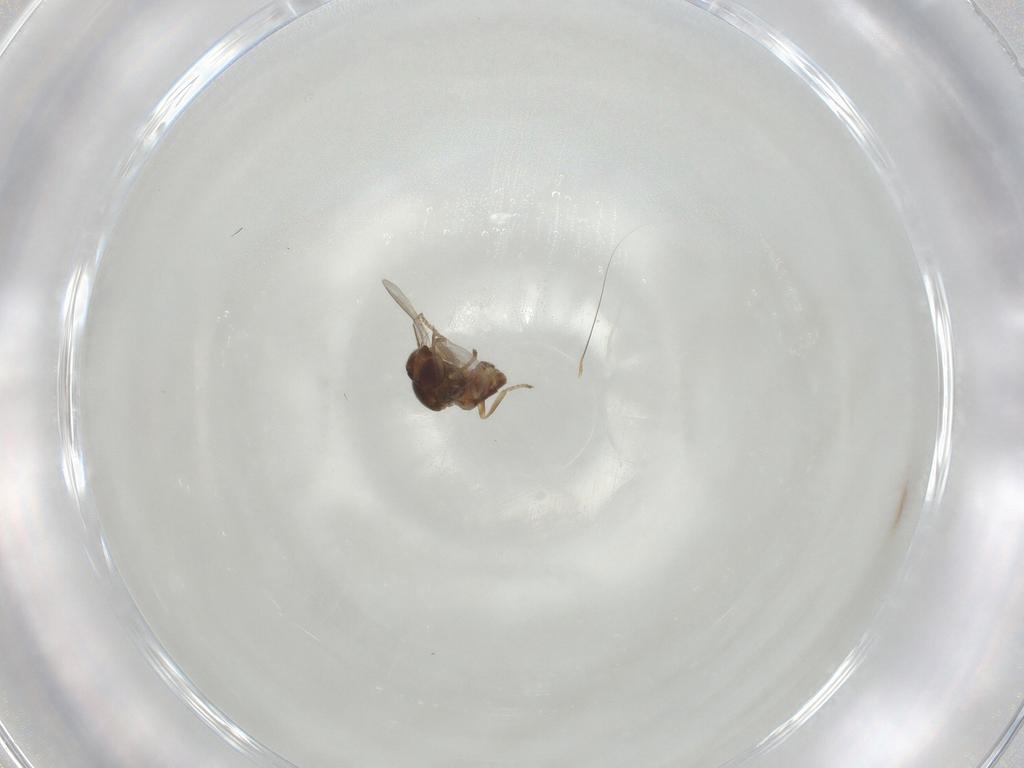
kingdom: Animalia
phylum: Arthropoda
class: Insecta
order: Diptera
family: Chloropidae
